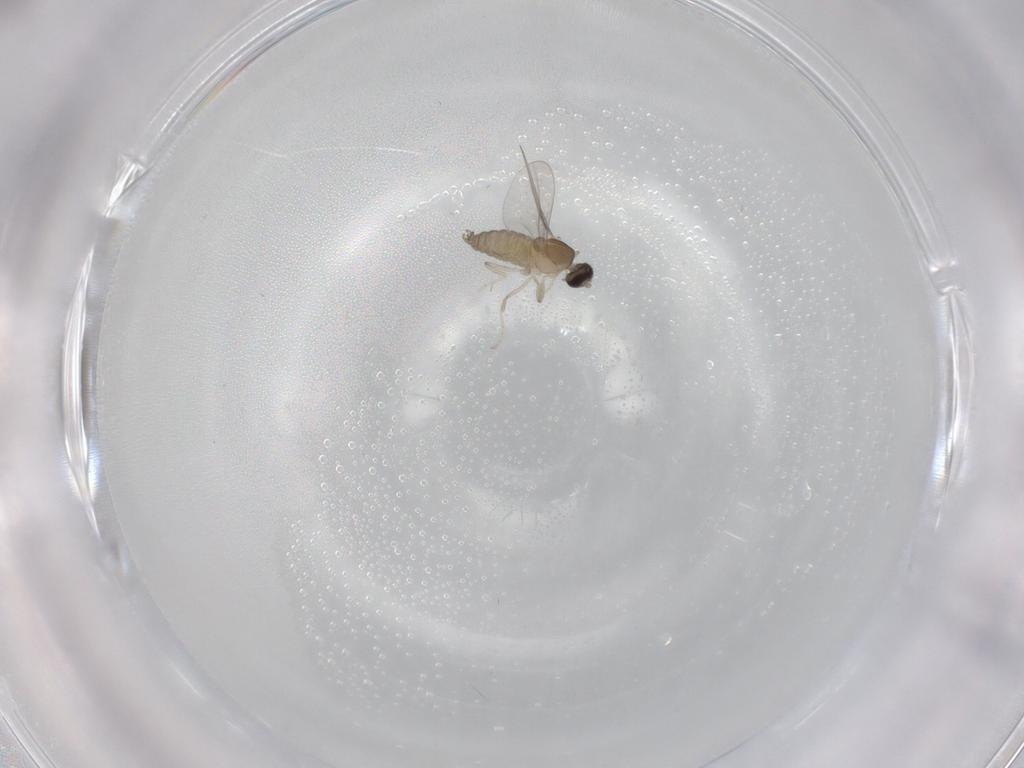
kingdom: Animalia
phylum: Arthropoda
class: Insecta
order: Diptera
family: Cecidomyiidae
